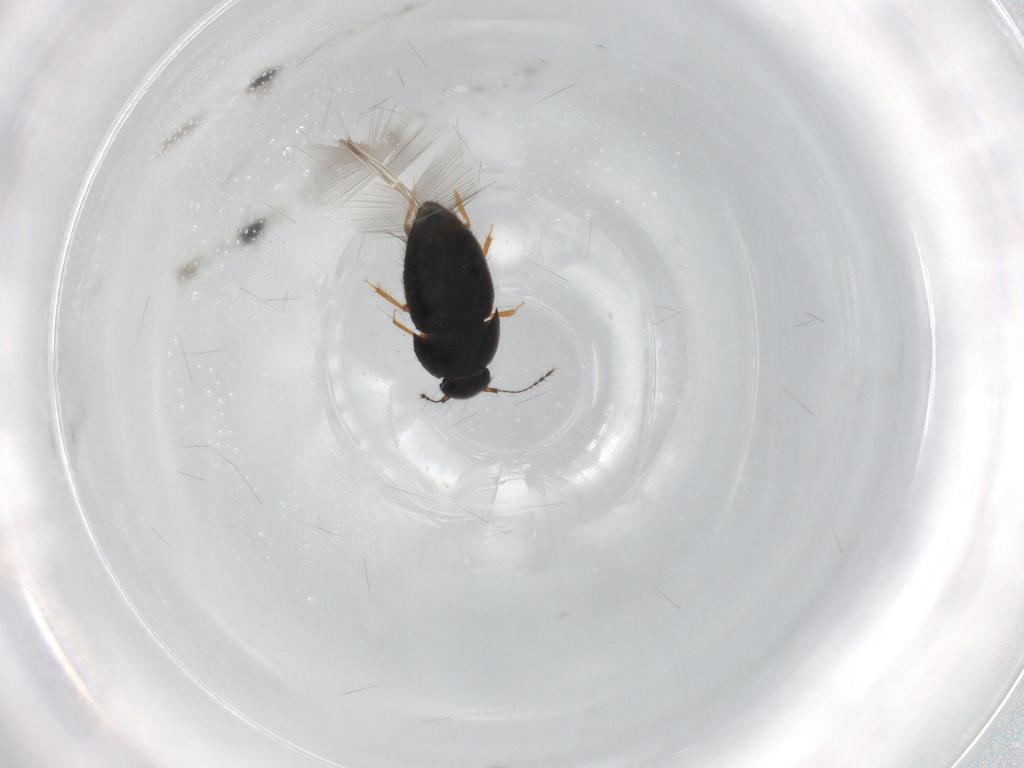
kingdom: Animalia
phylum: Arthropoda
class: Insecta
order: Coleoptera
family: Ptiliidae
